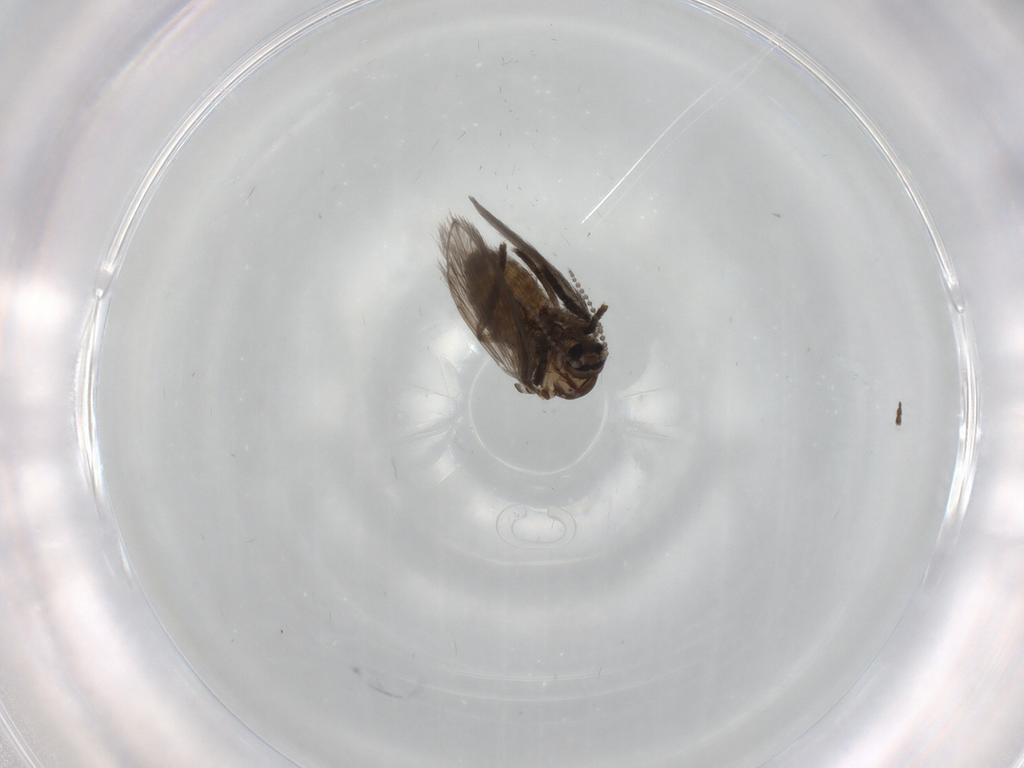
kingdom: Animalia
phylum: Arthropoda
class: Insecta
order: Diptera
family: Psychodidae
